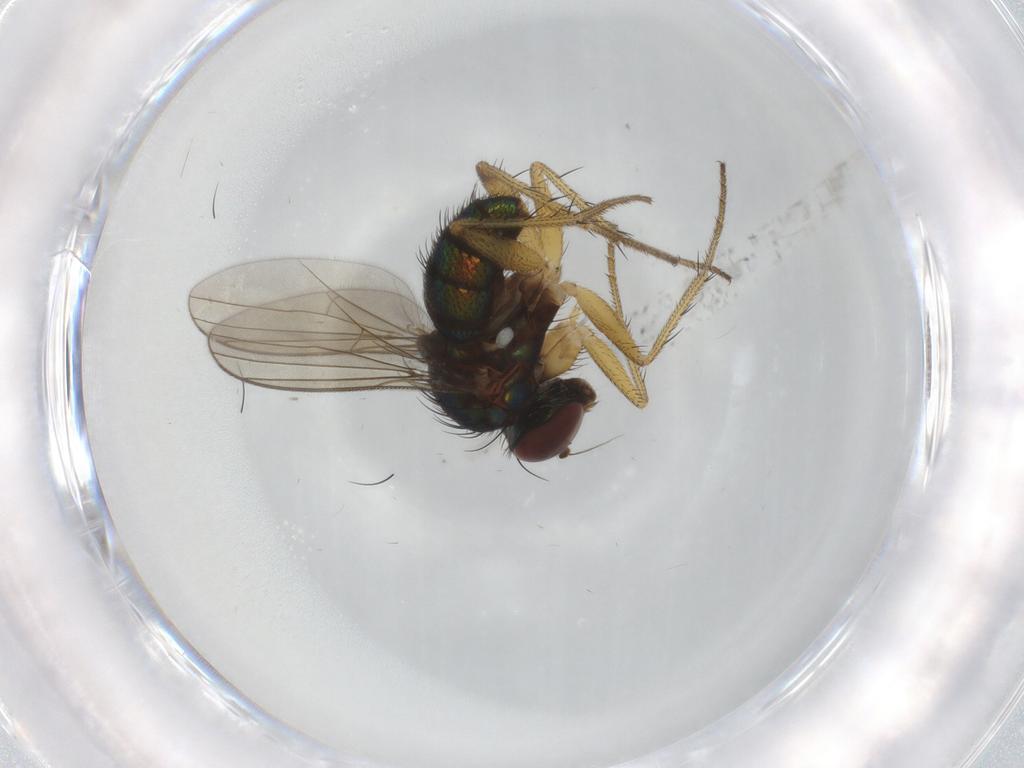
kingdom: Animalia
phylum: Arthropoda
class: Insecta
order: Diptera
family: Dolichopodidae
